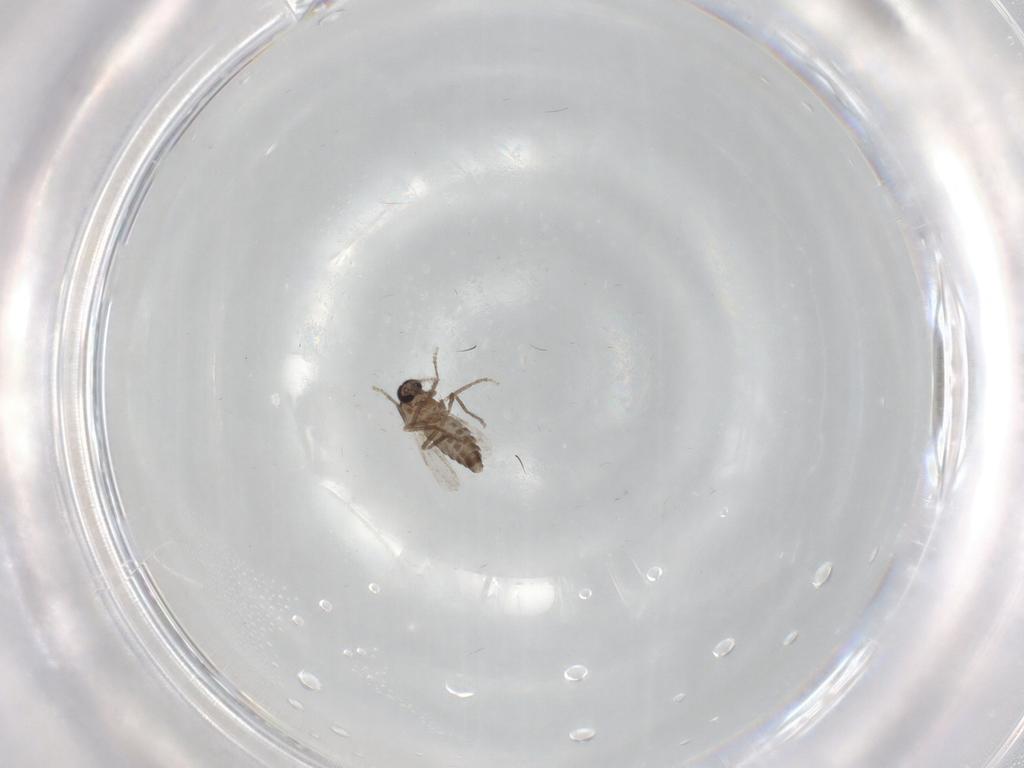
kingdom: Animalia
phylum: Arthropoda
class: Insecta
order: Diptera
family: Ceratopogonidae
